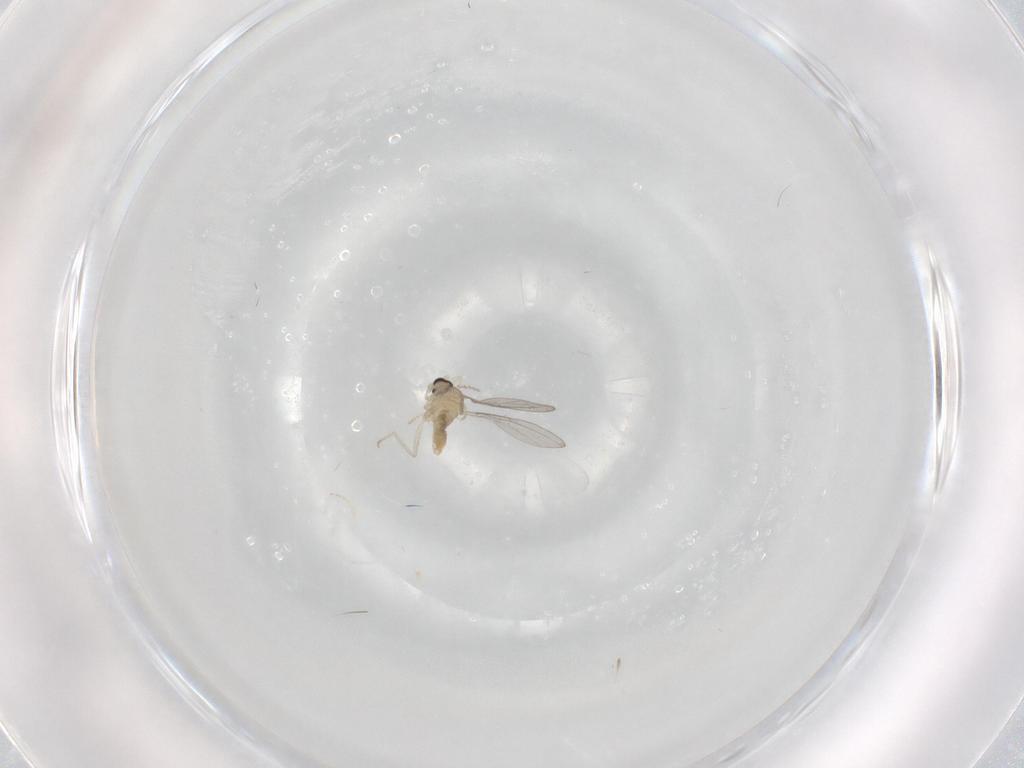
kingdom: Animalia
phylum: Arthropoda
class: Insecta
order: Diptera
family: Cecidomyiidae
